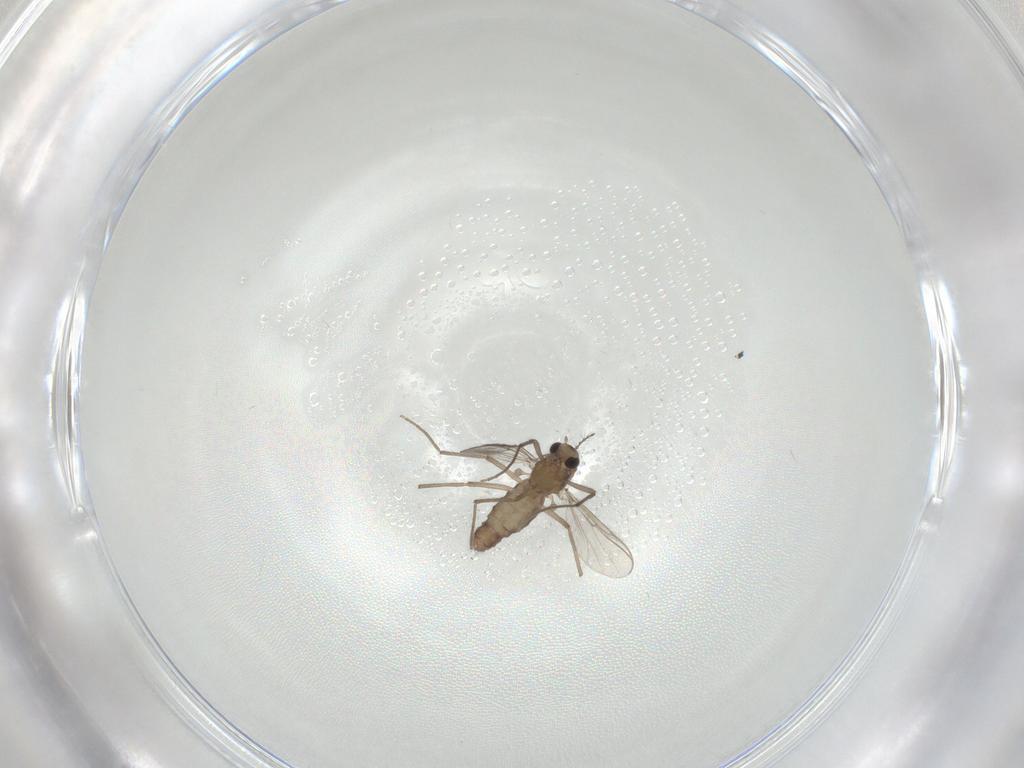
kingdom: Animalia
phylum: Arthropoda
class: Insecta
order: Diptera
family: Chironomidae
